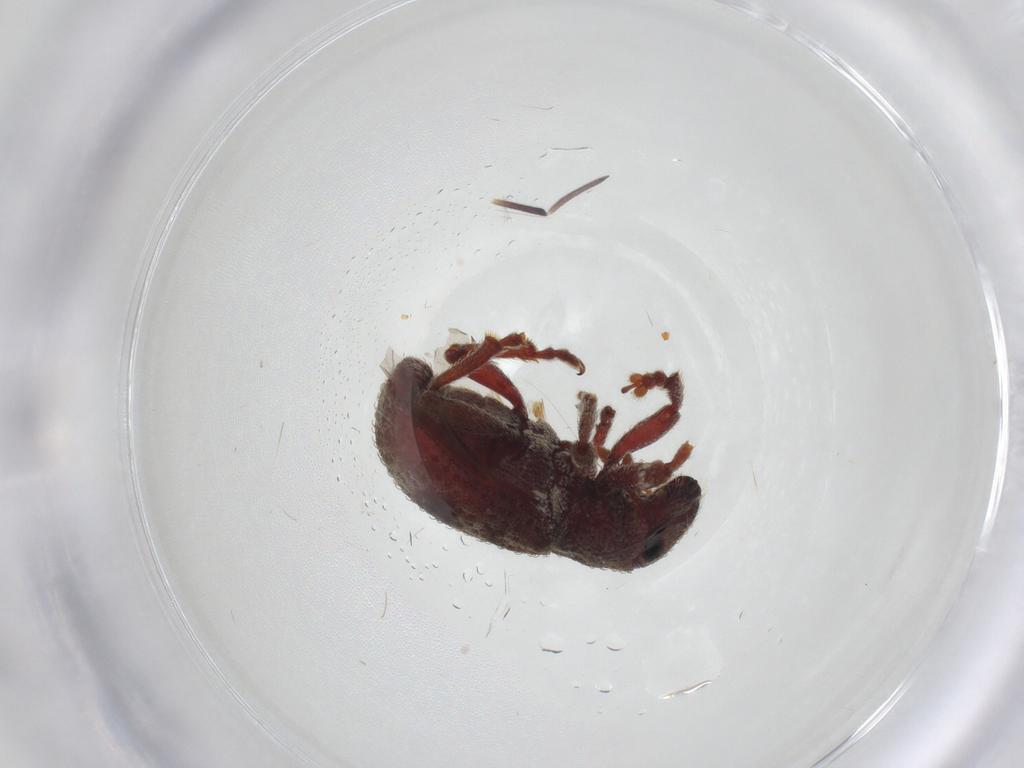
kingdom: Animalia
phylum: Arthropoda
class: Insecta
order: Coleoptera
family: Curculionidae
